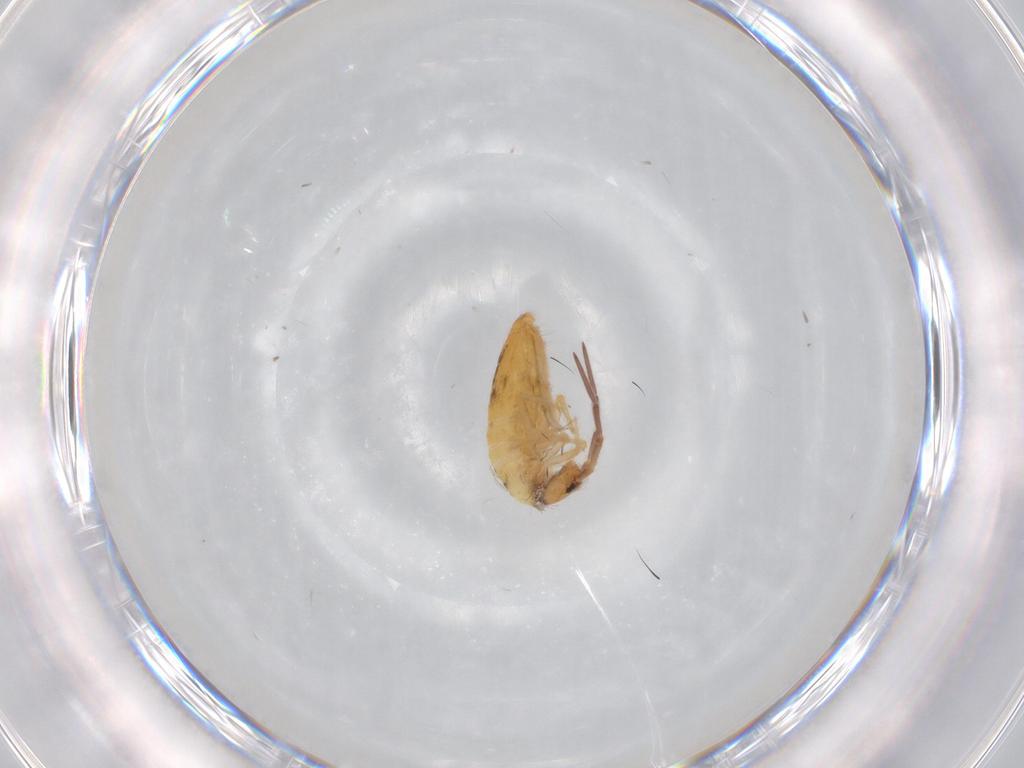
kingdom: Animalia
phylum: Arthropoda
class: Collembola
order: Entomobryomorpha
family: Entomobryidae
